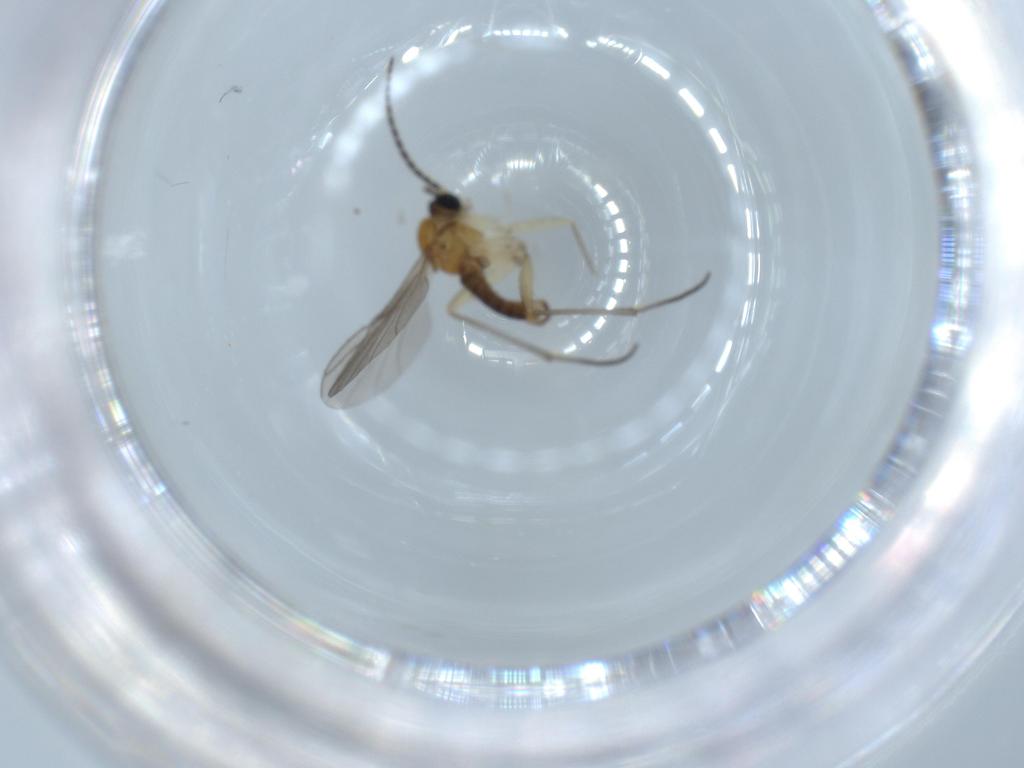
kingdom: Animalia
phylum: Arthropoda
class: Insecta
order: Diptera
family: Sciaridae
